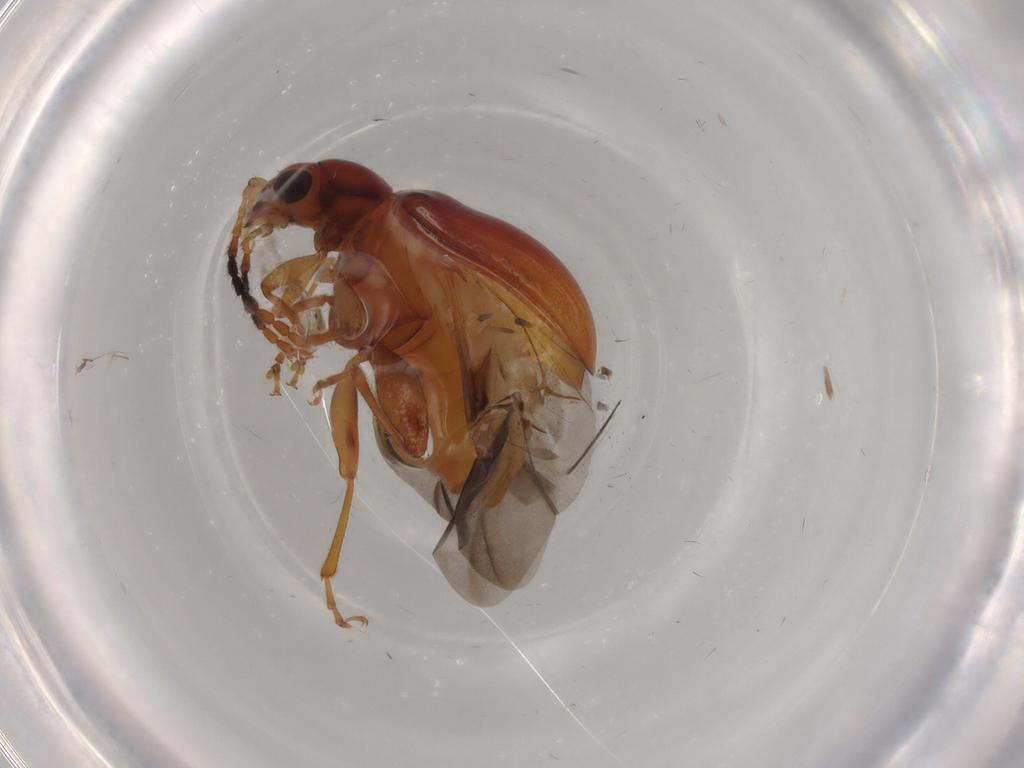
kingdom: Animalia
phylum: Arthropoda
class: Insecta
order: Coleoptera
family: Chrysomelidae
